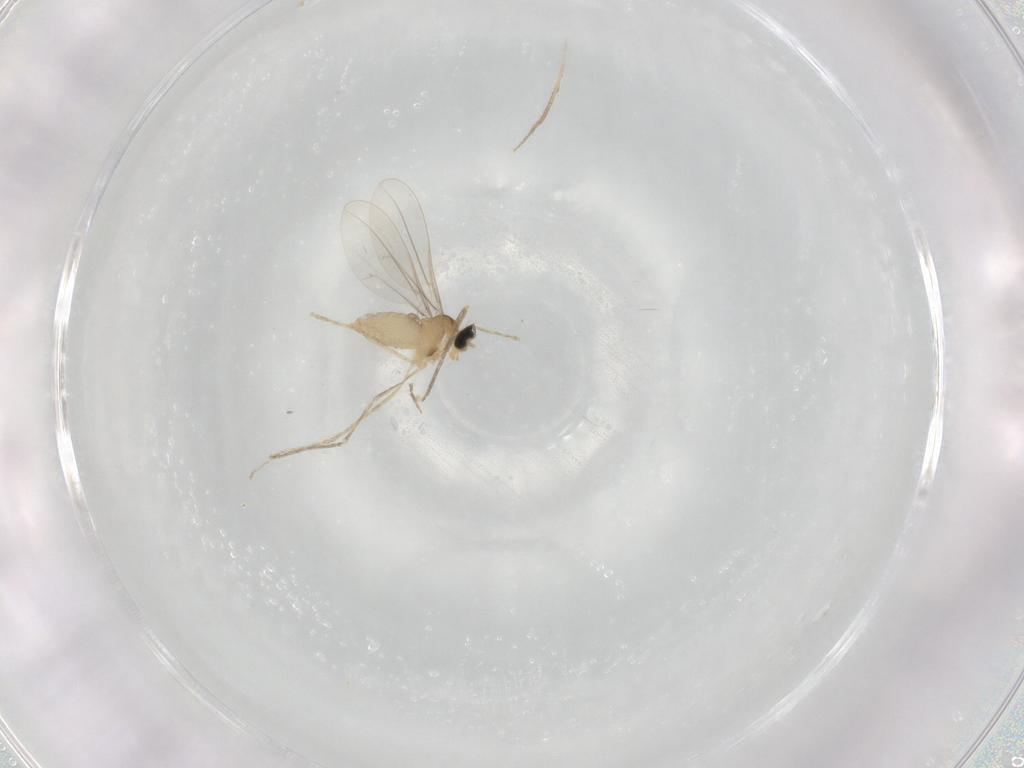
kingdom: Animalia
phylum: Arthropoda
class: Insecta
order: Diptera
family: Cecidomyiidae
